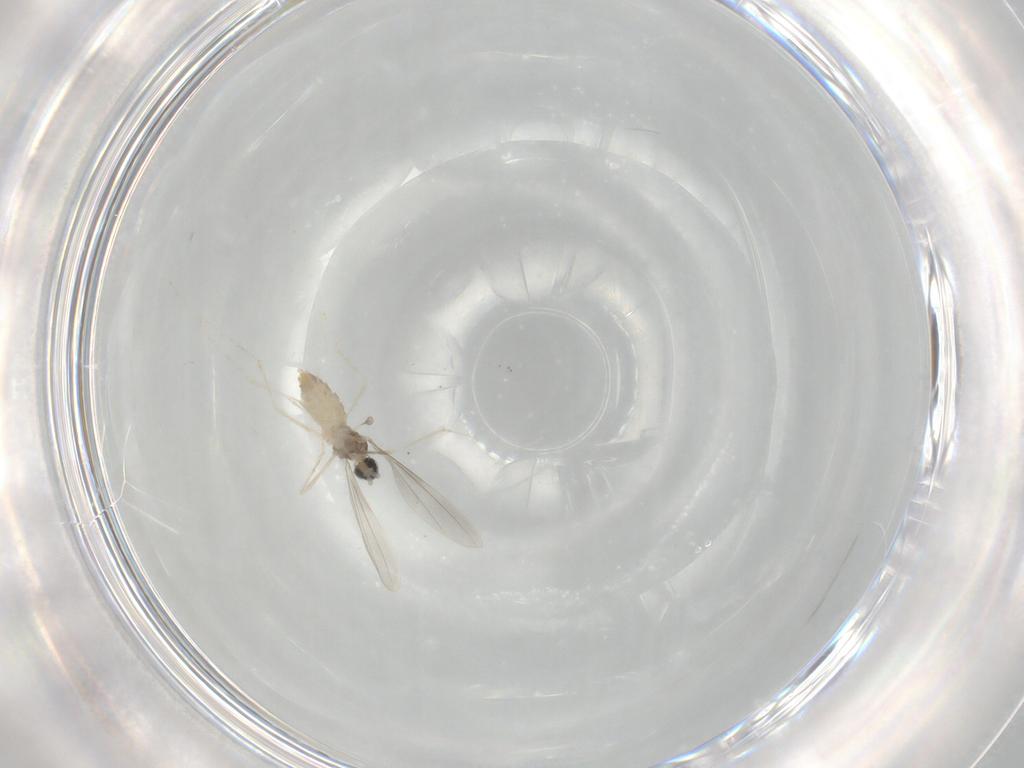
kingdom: Animalia
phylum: Arthropoda
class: Insecta
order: Diptera
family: Cecidomyiidae
